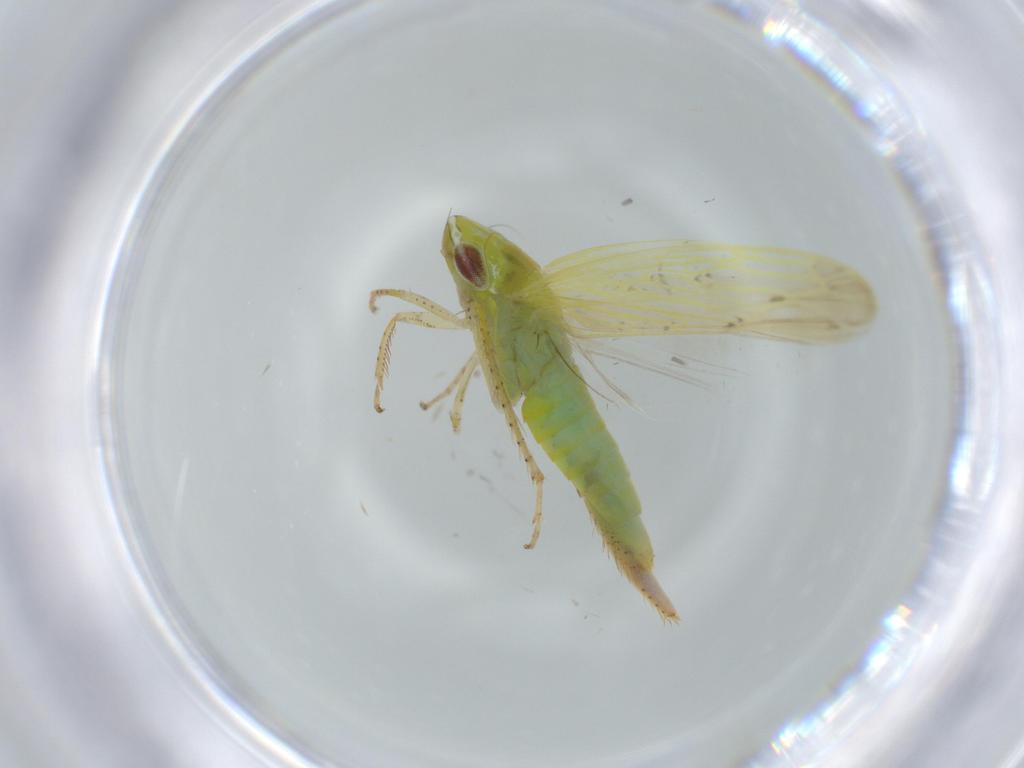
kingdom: Animalia
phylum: Arthropoda
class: Insecta
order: Hemiptera
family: Cicadellidae
